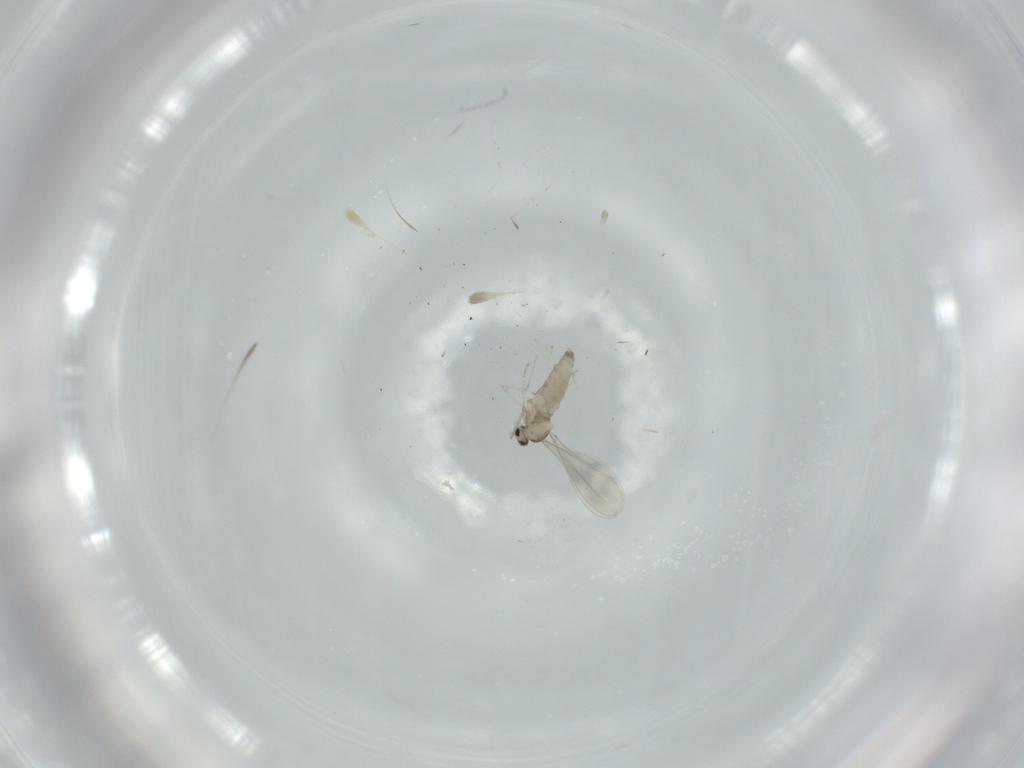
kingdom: Animalia
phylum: Arthropoda
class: Insecta
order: Diptera
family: Cecidomyiidae
